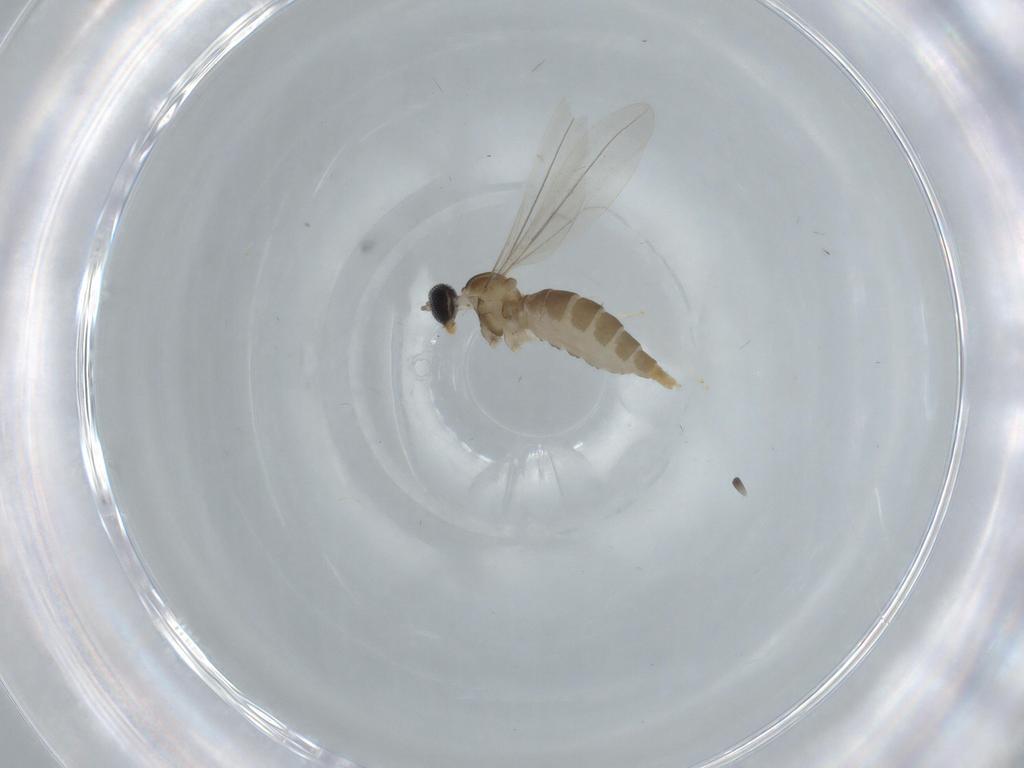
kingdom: Animalia
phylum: Arthropoda
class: Insecta
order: Diptera
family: Cecidomyiidae
